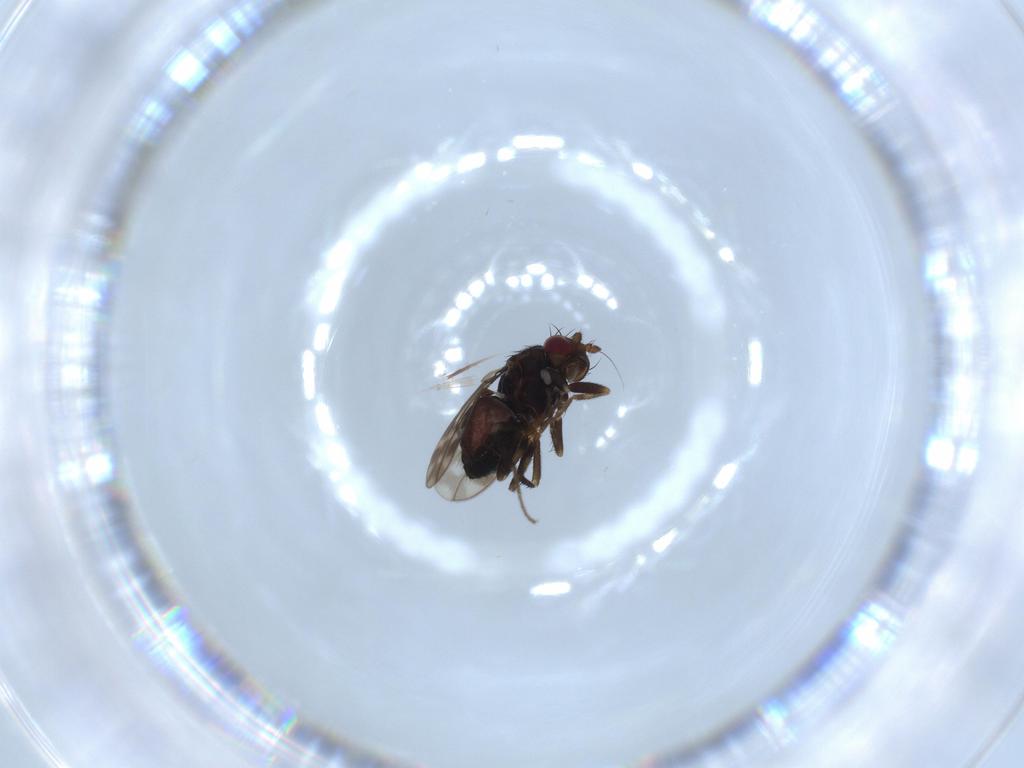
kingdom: Animalia
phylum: Arthropoda
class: Insecta
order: Diptera
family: Sphaeroceridae
